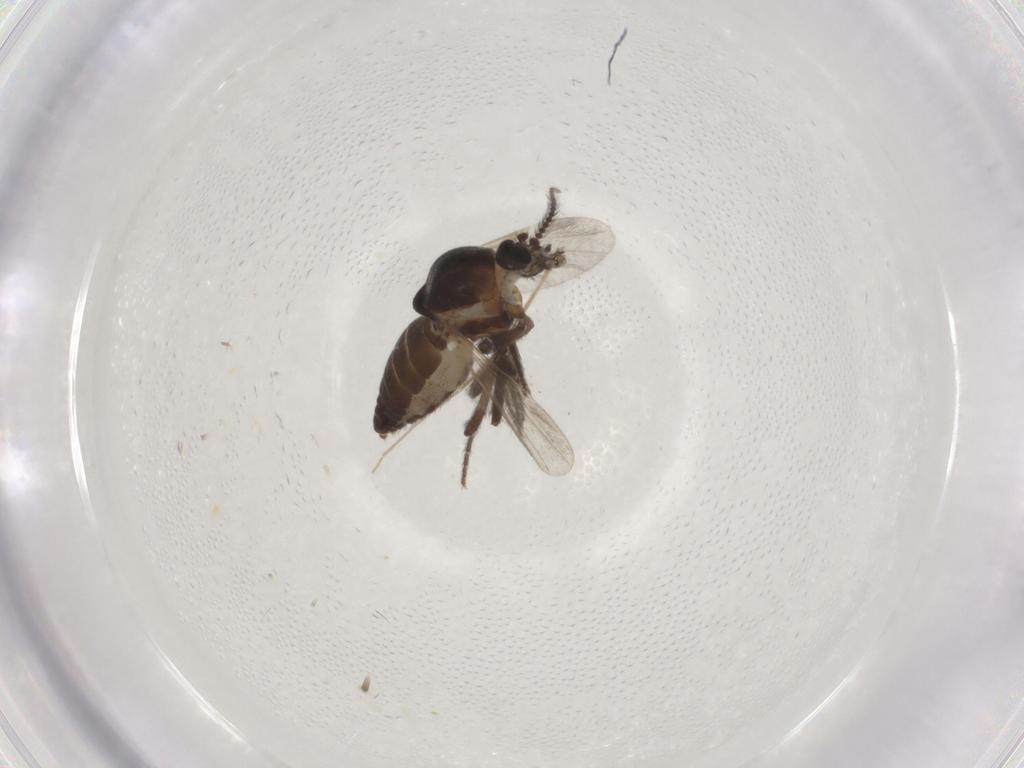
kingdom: Animalia
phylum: Arthropoda
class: Insecta
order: Diptera
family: Ceratopogonidae
